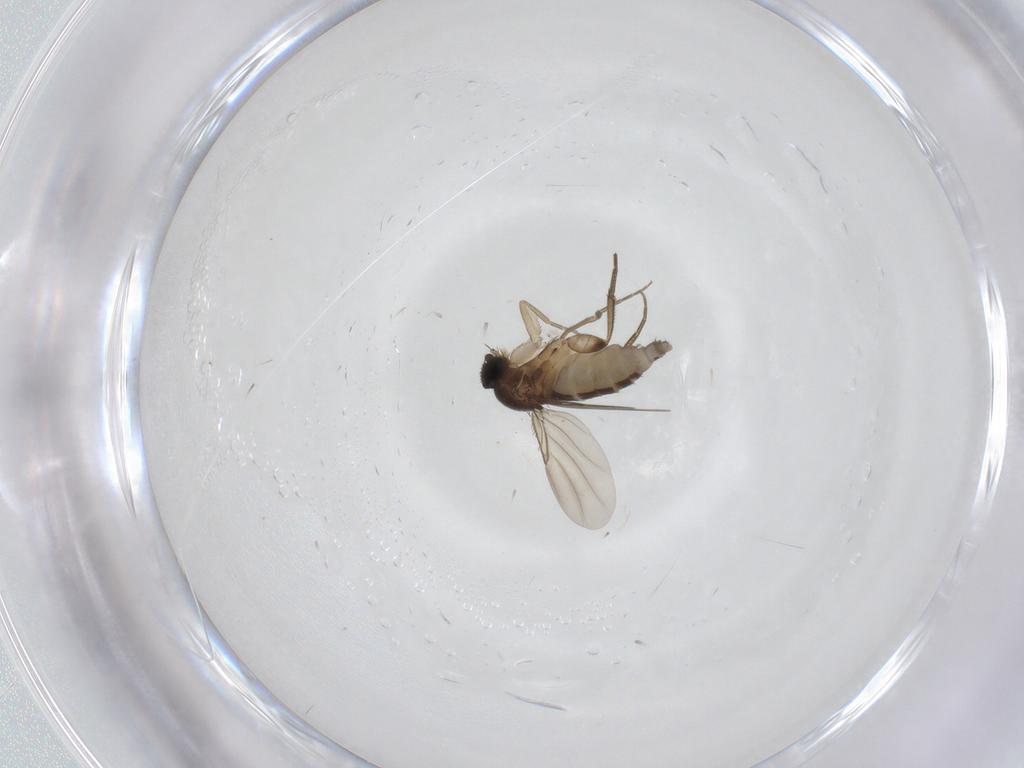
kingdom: Animalia
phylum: Arthropoda
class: Insecta
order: Diptera
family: Phoridae
